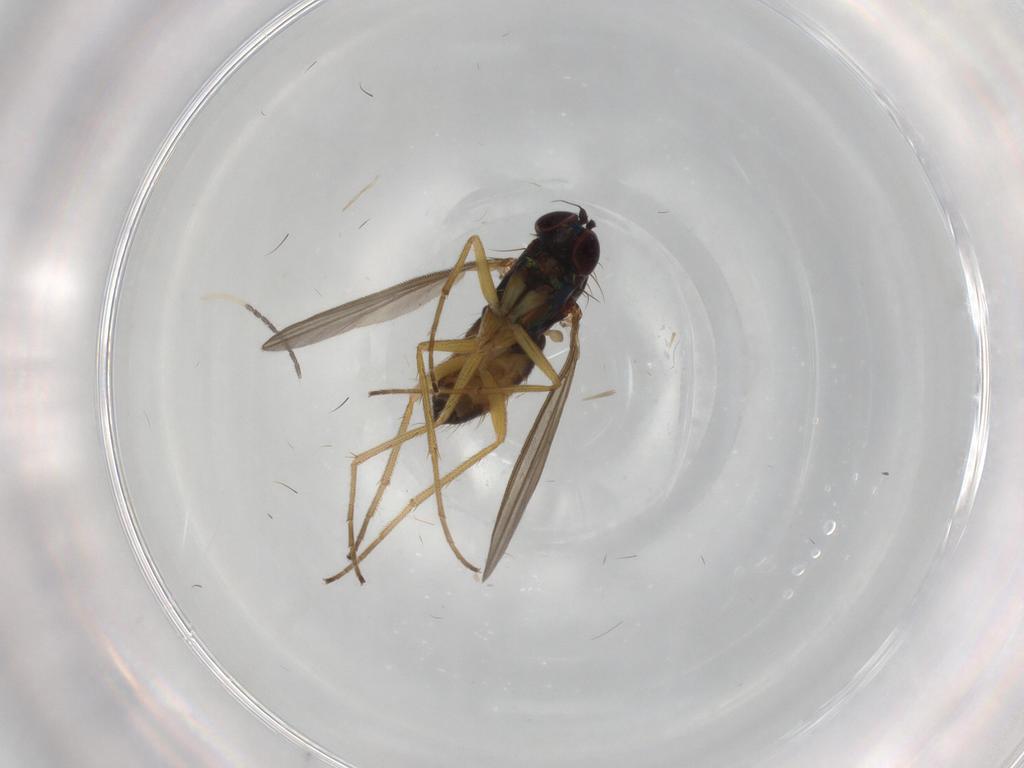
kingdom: Animalia
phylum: Arthropoda
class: Insecta
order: Diptera
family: Dolichopodidae
